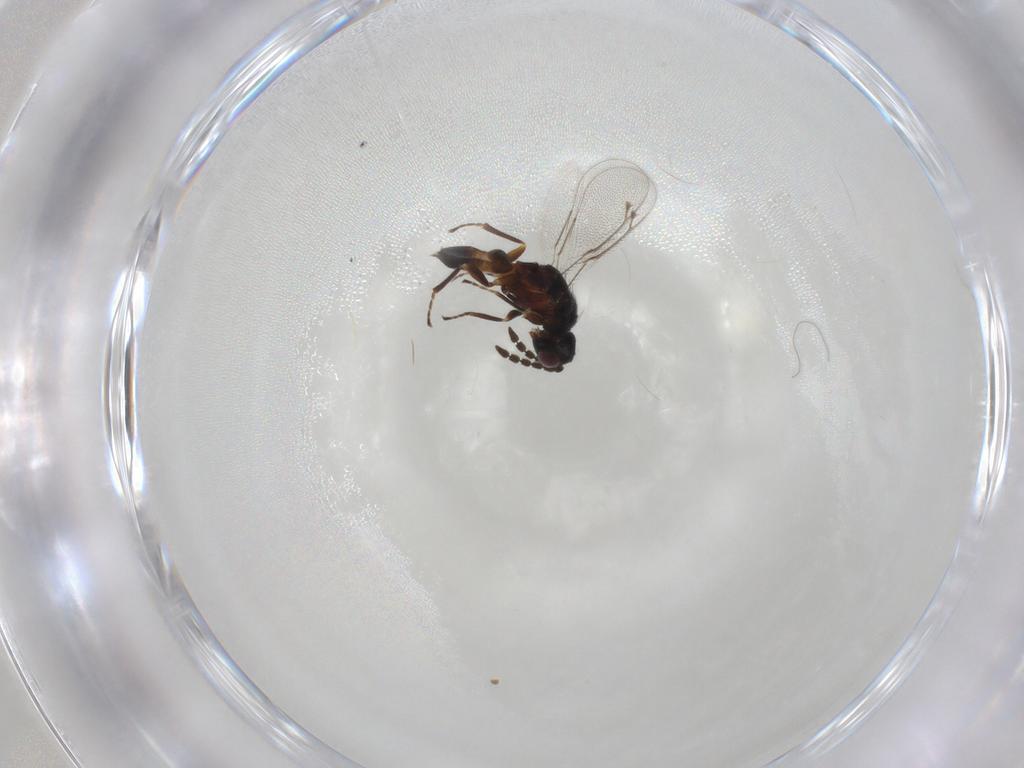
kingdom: Animalia
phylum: Arthropoda
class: Insecta
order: Hymenoptera
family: Eulophidae
